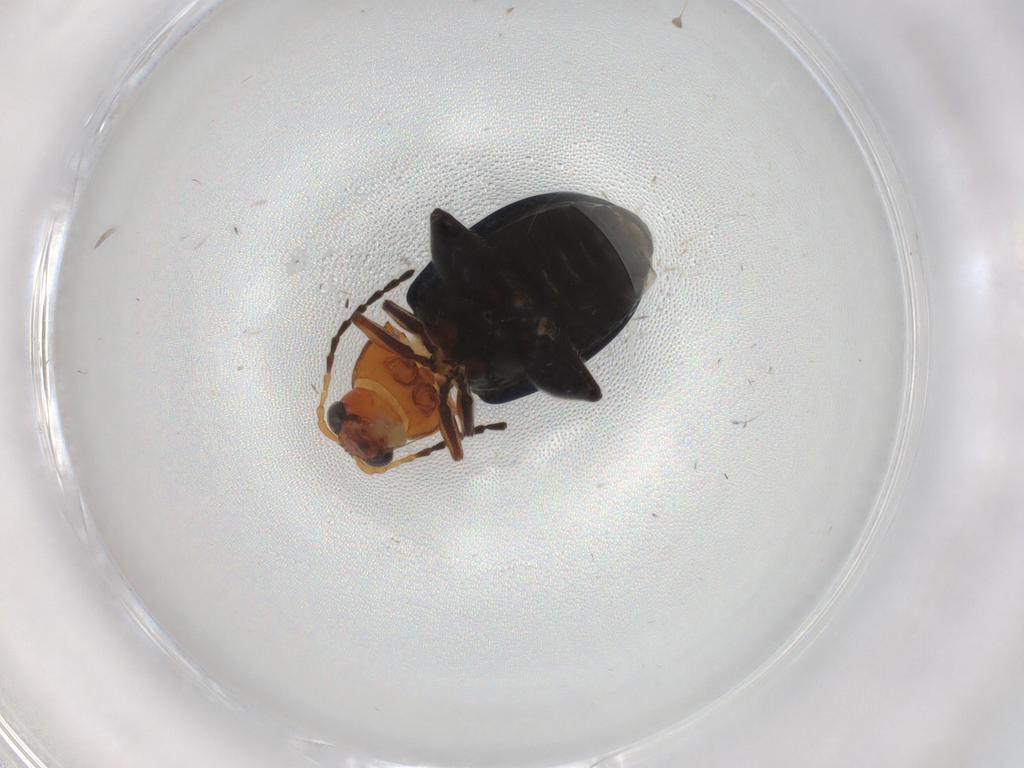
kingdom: Animalia
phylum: Arthropoda
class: Insecta
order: Coleoptera
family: Chrysomelidae
